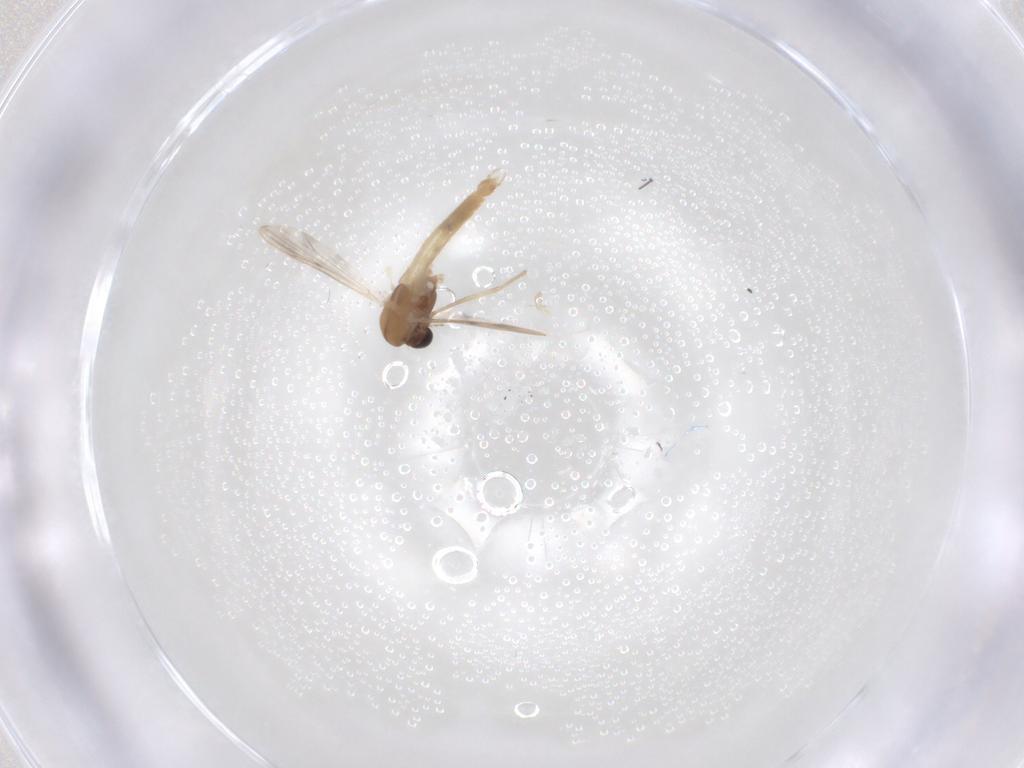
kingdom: Animalia
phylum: Arthropoda
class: Insecta
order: Diptera
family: Chironomidae
